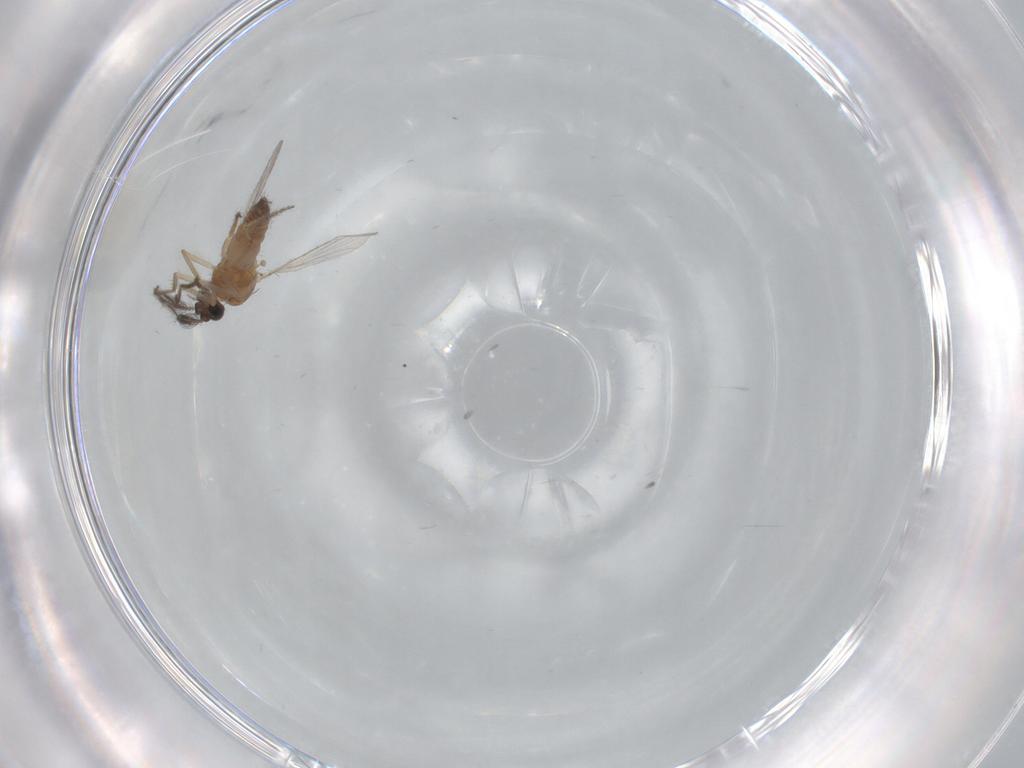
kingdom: Animalia
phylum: Arthropoda
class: Insecta
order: Diptera
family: Ceratopogonidae
